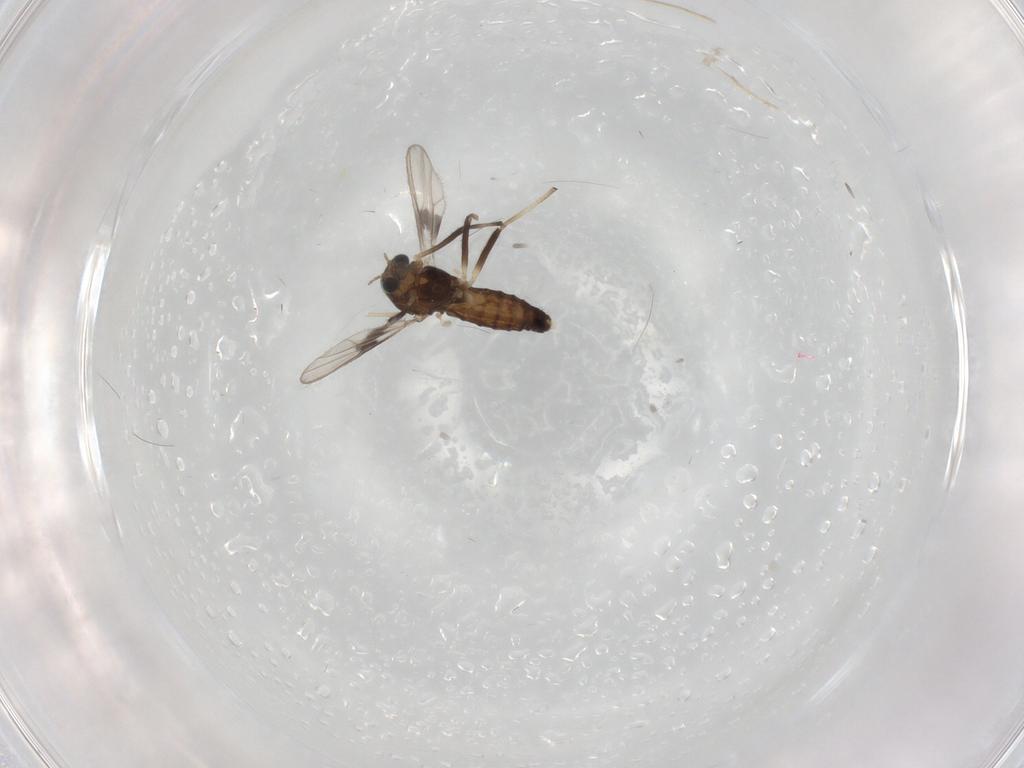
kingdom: Animalia
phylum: Arthropoda
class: Insecta
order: Diptera
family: Chironomidae
